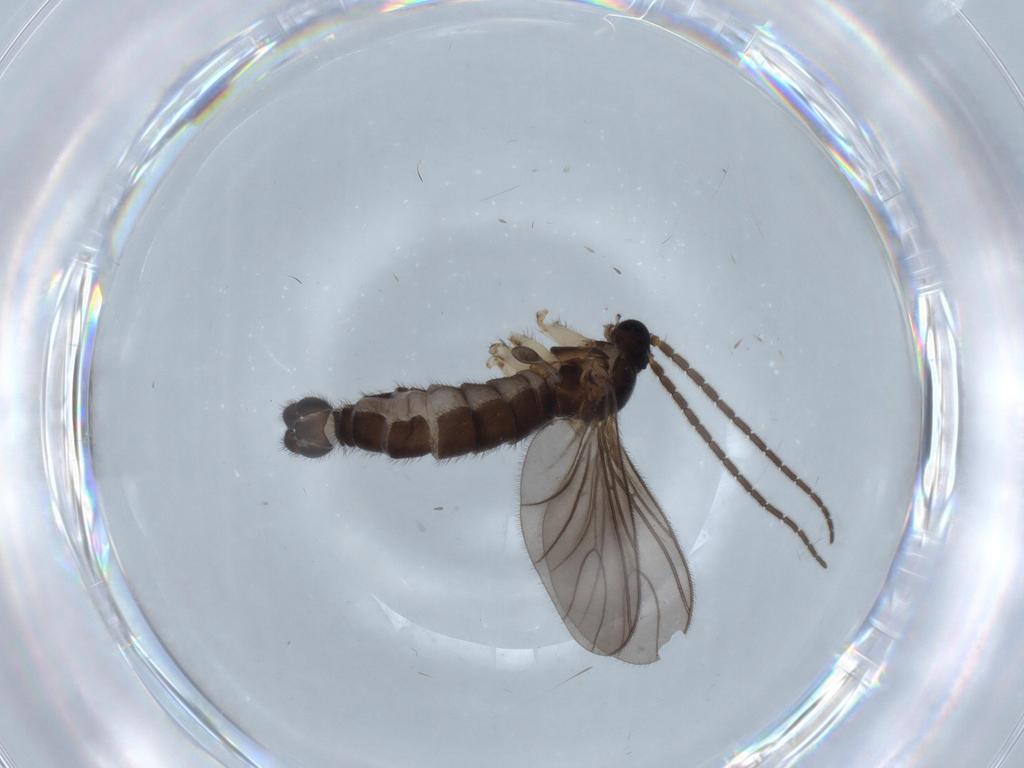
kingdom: Animalia
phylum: Arthropoda
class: Insecta
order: Diptera
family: Sciaridae
